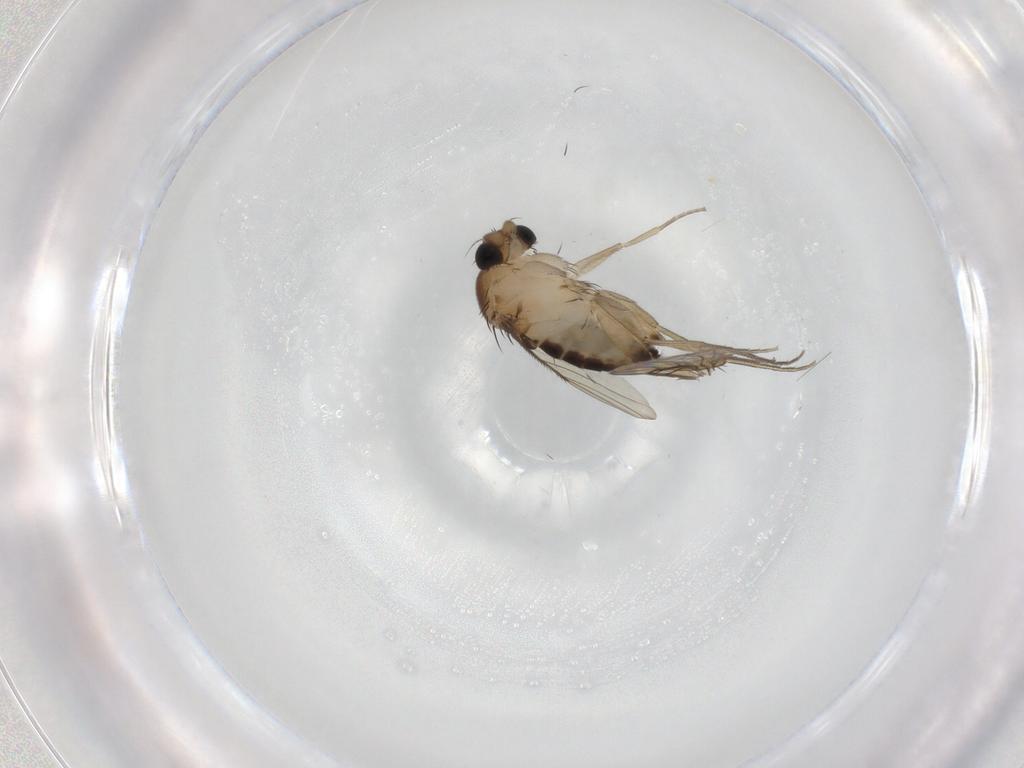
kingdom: Animalia
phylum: Arthropoda
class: Insecta
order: Diptera
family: Phoridae
